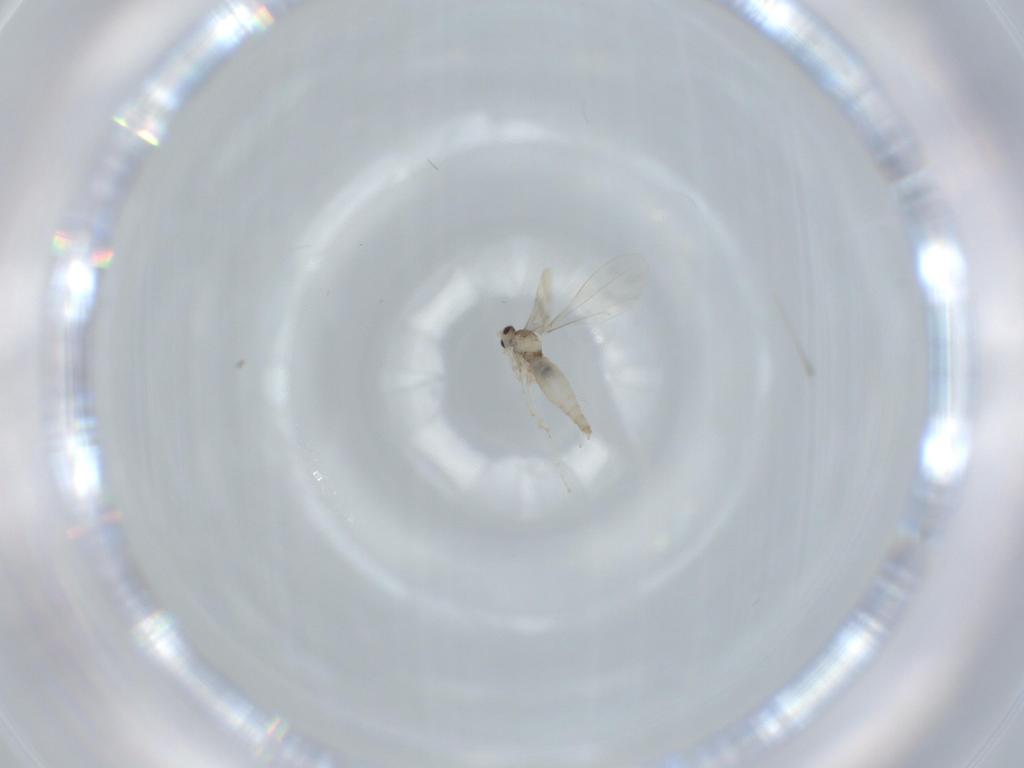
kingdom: Animalia
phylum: Arthropoda
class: Insecta
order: Diptera
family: Cecidomyiidae
